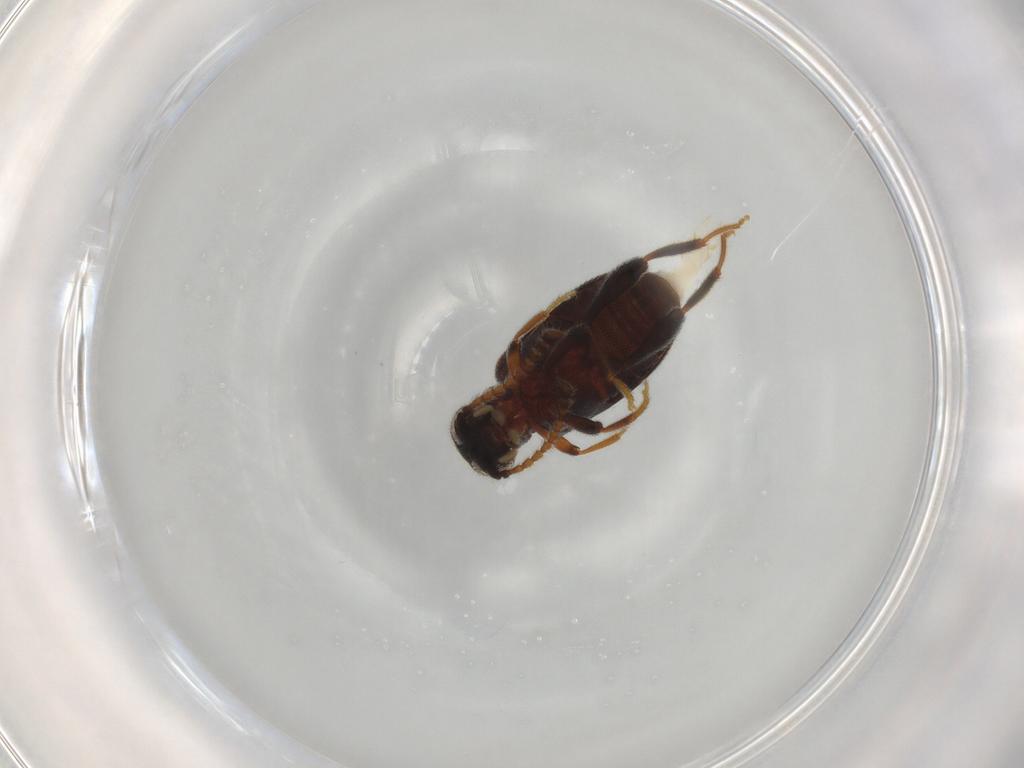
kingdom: Animalia
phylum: Arthropoda
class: Insecta
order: Coleoptera
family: Aderidae
